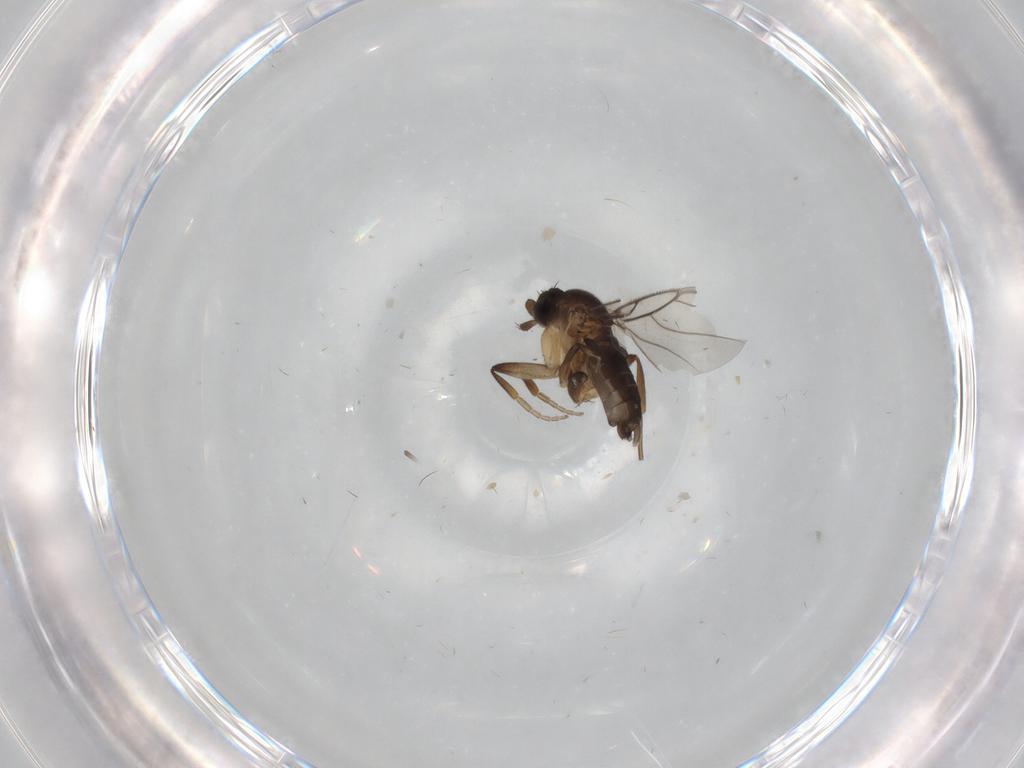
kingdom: Animalia
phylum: Arthropoda
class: Insecta
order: Diptera
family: Phoridae
